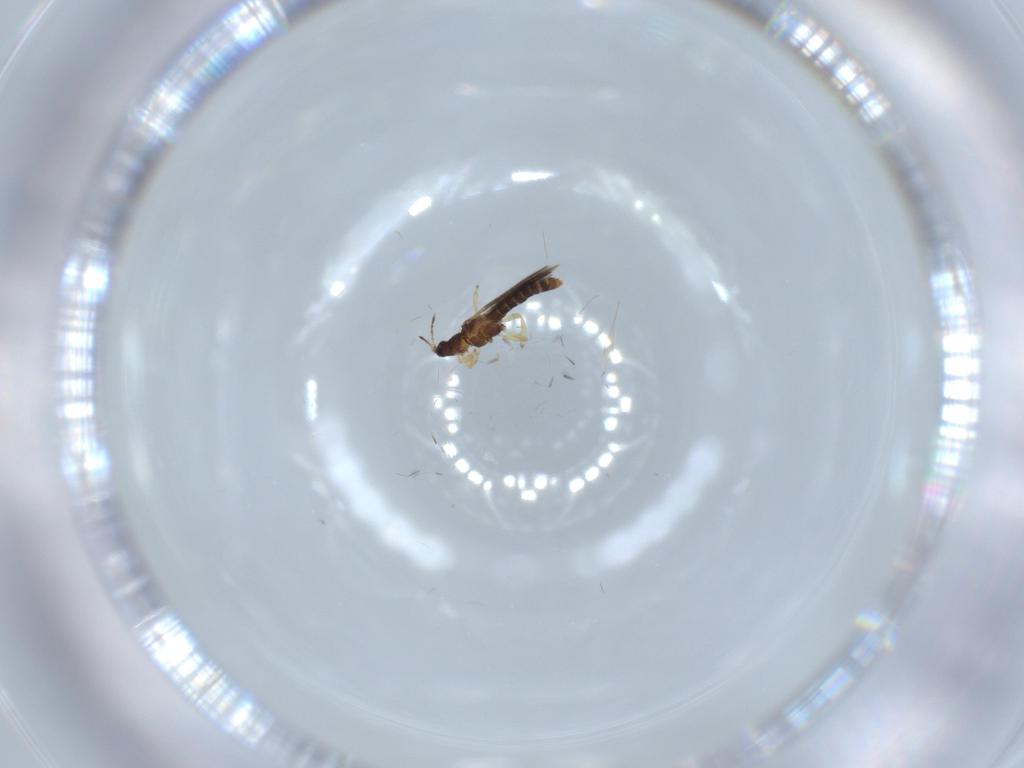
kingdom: Animalia
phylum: Arthropoda
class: Insecta
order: Thysanoptera
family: Thripidae
